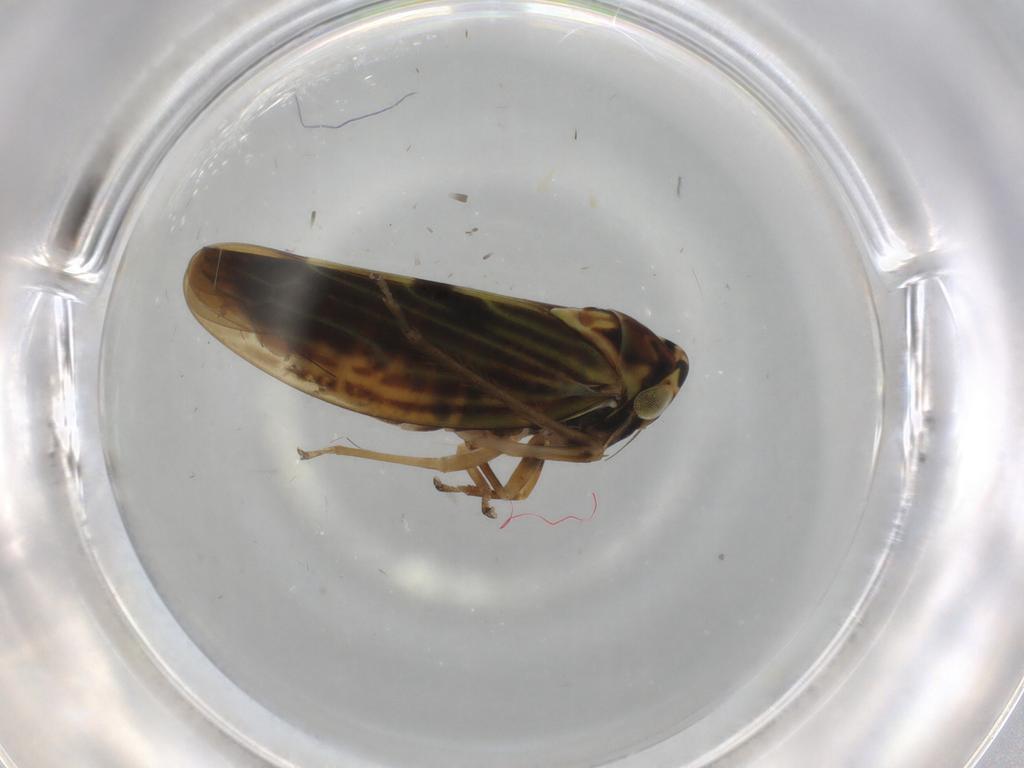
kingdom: Animalia
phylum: Arthropoda
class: Insecta
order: Hemiptera
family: Cicadellidae
